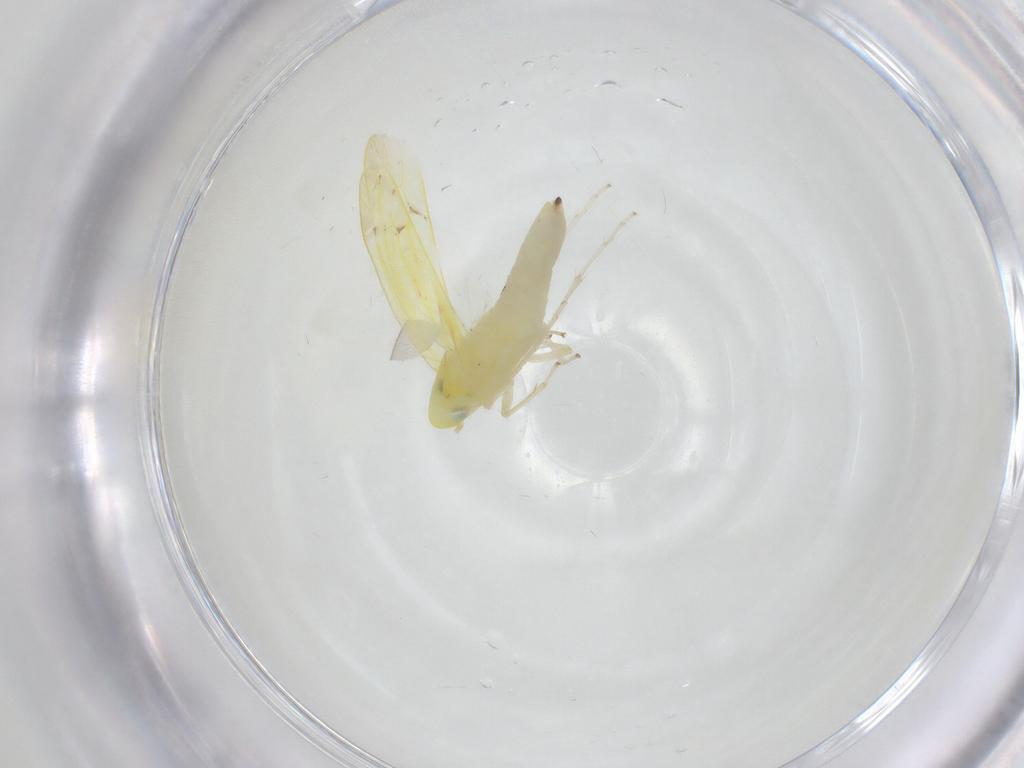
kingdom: Animalia
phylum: Arthropoda
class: Insecta
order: Hemiptera
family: Cicadellidae
